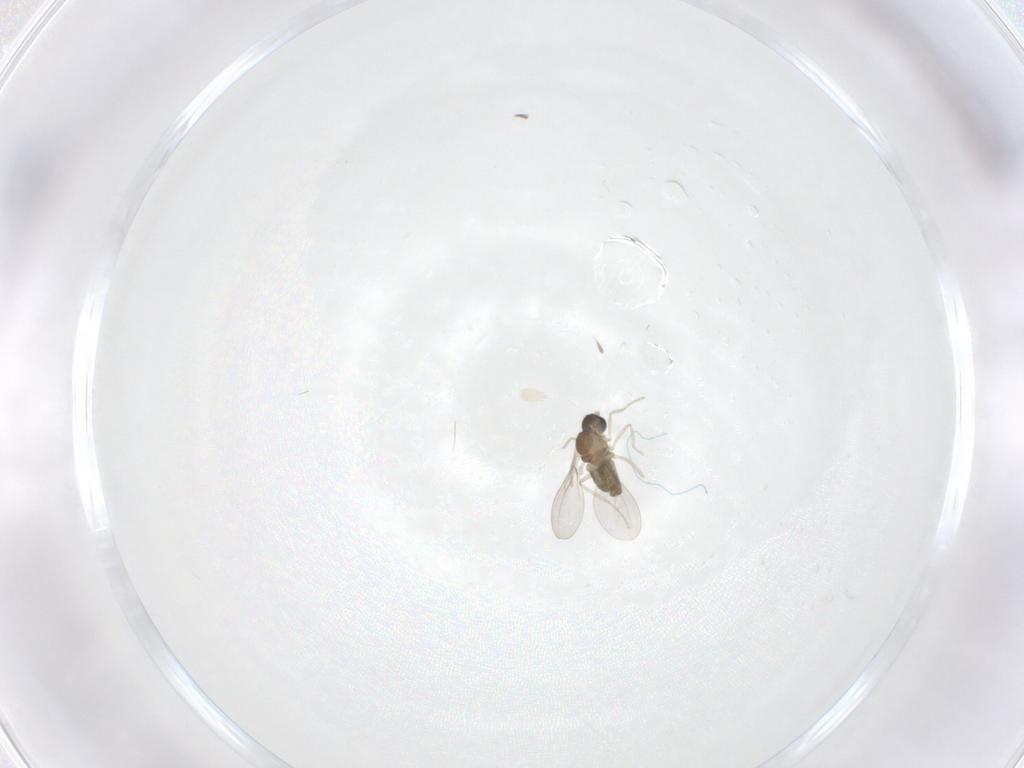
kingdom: Animalia
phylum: Arthropoda
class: Insecta
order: Diptera
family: Cecidomyiidae
